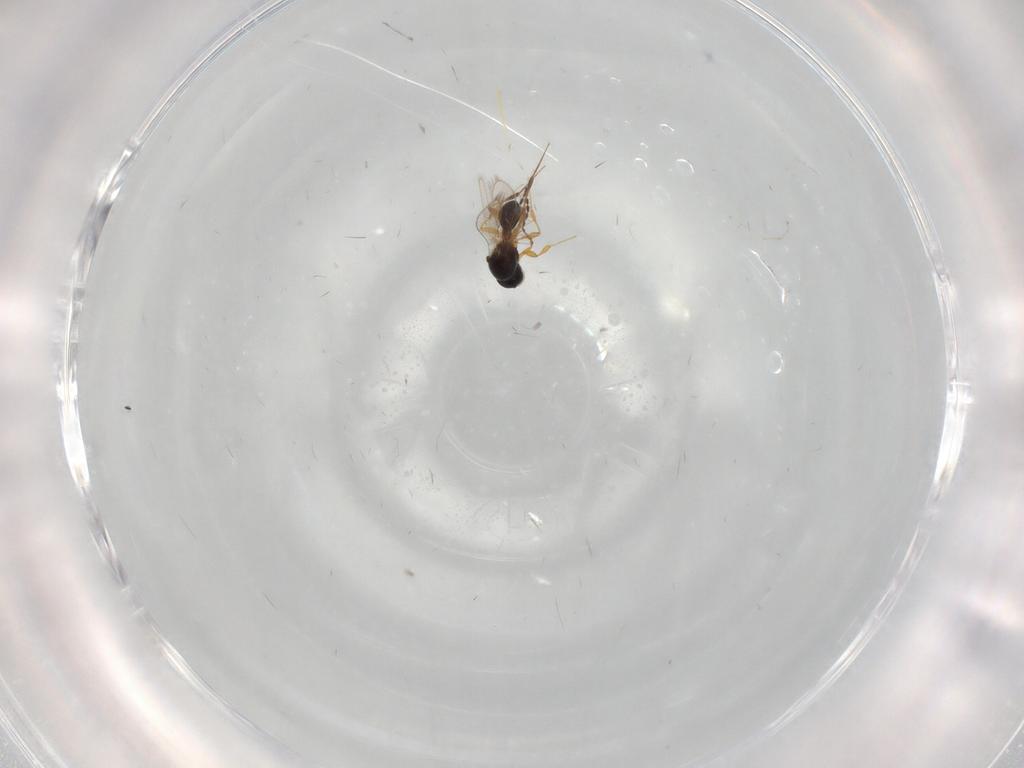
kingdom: Animalia
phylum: Arthropoda
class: Insecta
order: Hymenoptera
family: Platygastridae
